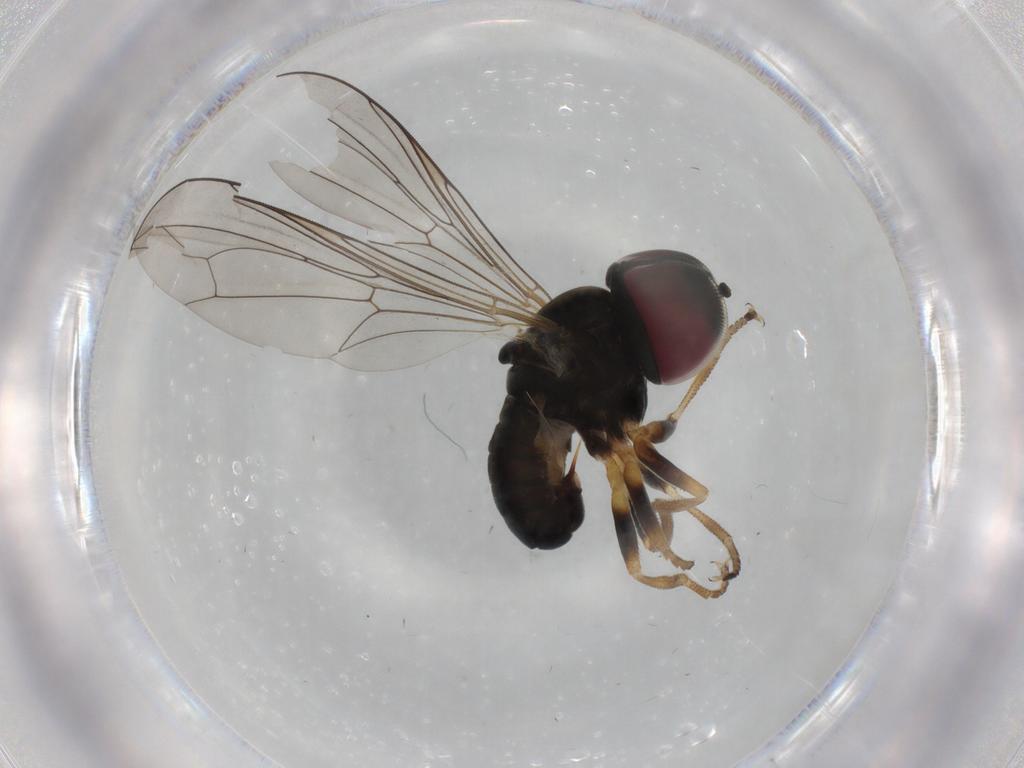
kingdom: Animalia
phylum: Arthropoda
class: Insecta
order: Diptera
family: Pipunculidae
